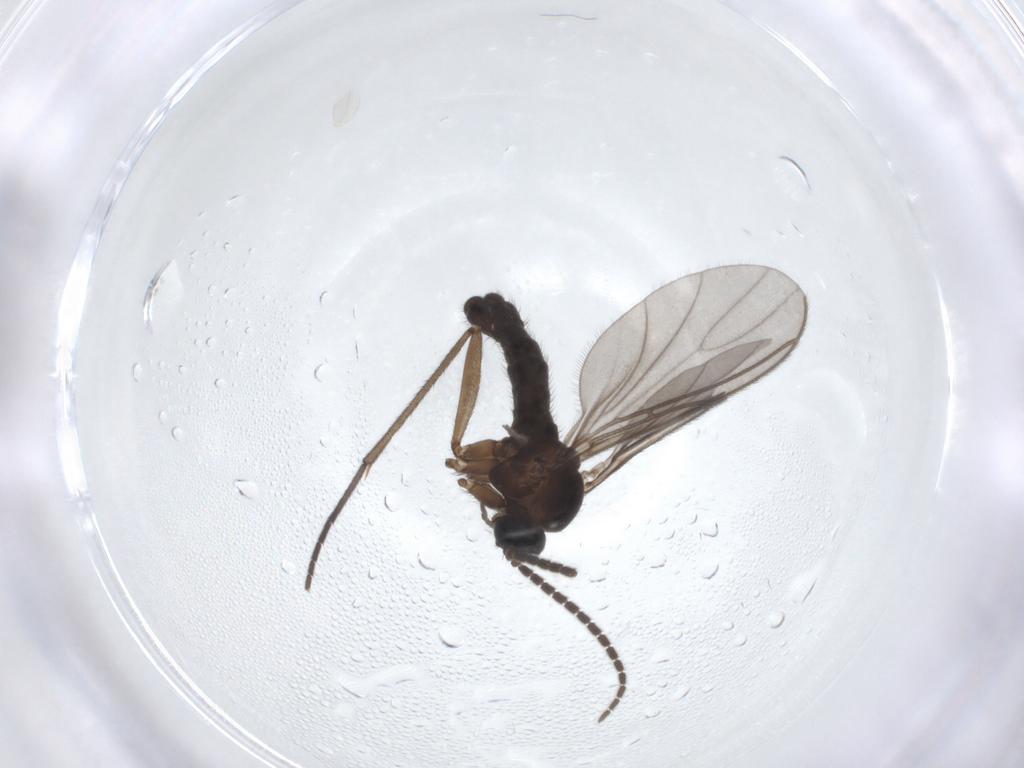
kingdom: Animalia
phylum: Arthropoda
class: Insecta
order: Diptera
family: Sciaridae
